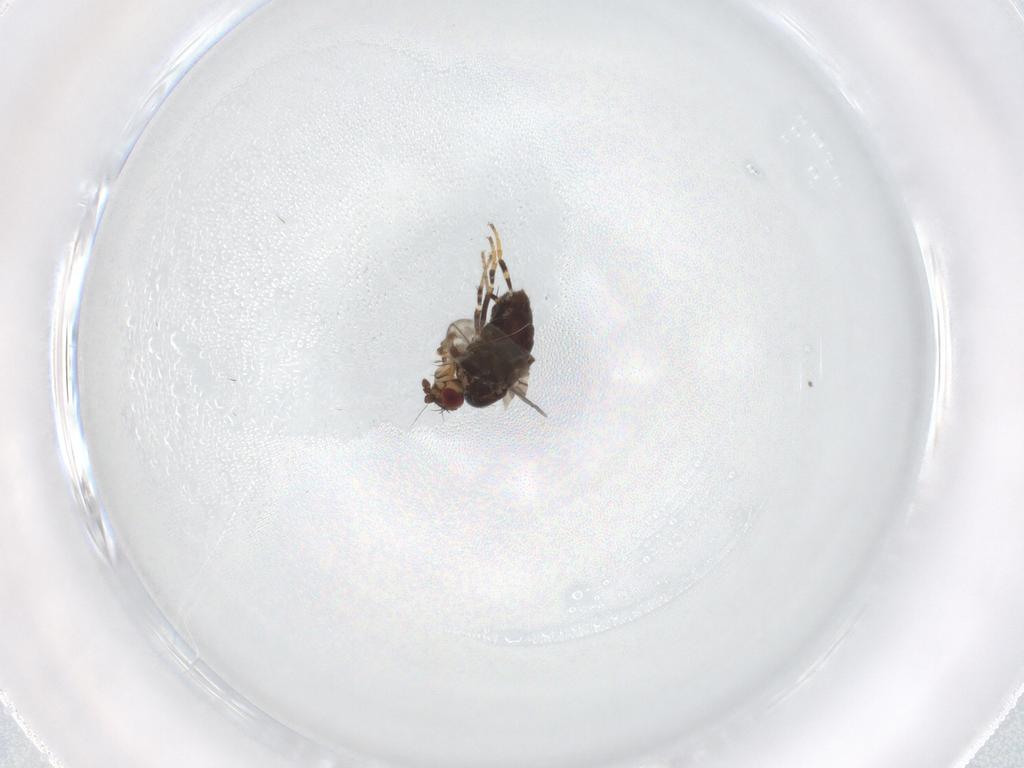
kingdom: Animalia
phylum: Arthropoda
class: Insecta
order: Diptera
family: Sphaeroceridae
